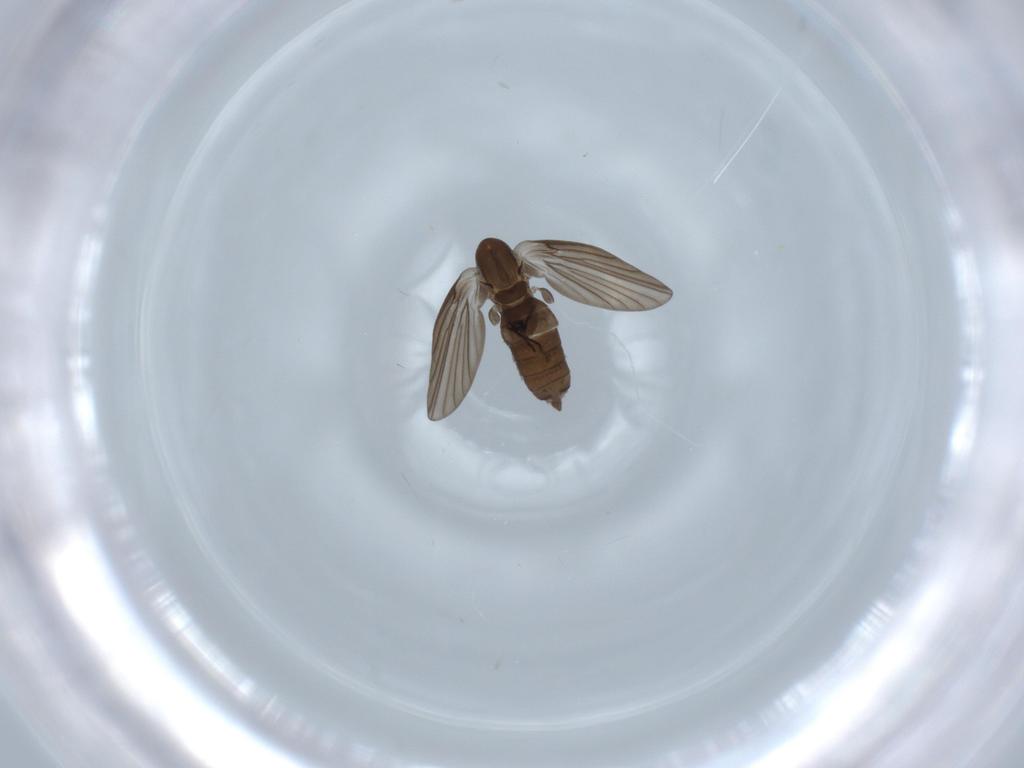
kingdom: Animalia
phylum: Arthropoda
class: Insecta
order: Diptera
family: Psychodidae
